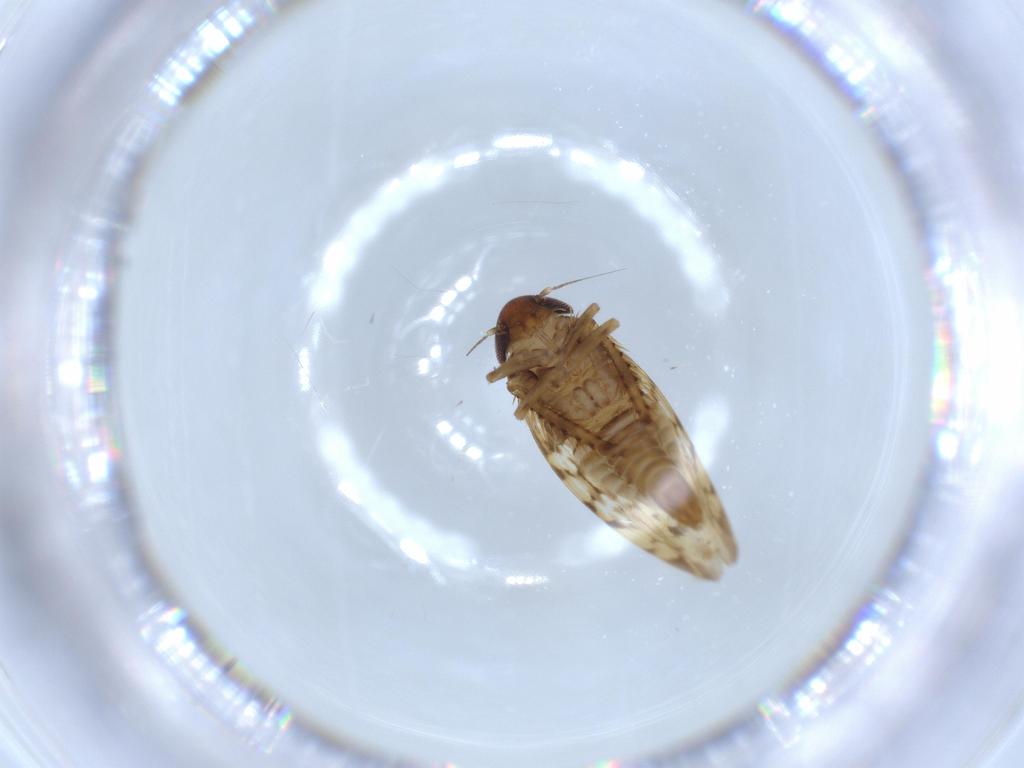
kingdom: Animalia
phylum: Arthropoda
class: Insecta
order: Hemiptera
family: Cicadellidae
